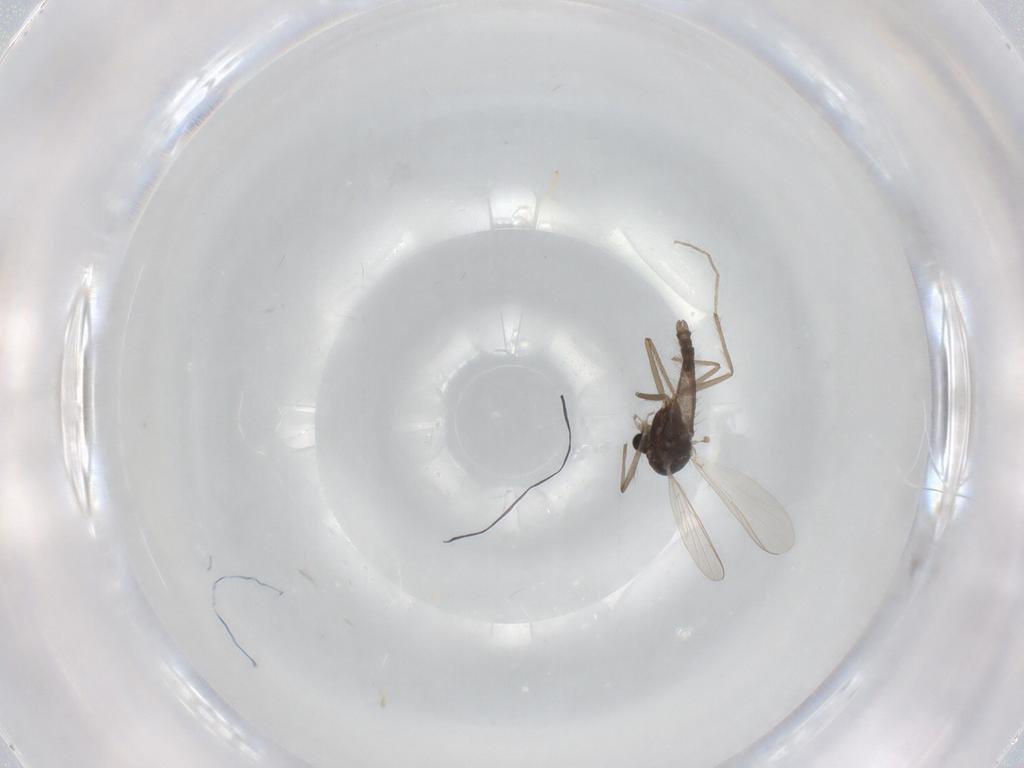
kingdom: Animalia
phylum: Arthropoda
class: Insecta
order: Diptera
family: Chironomidae
